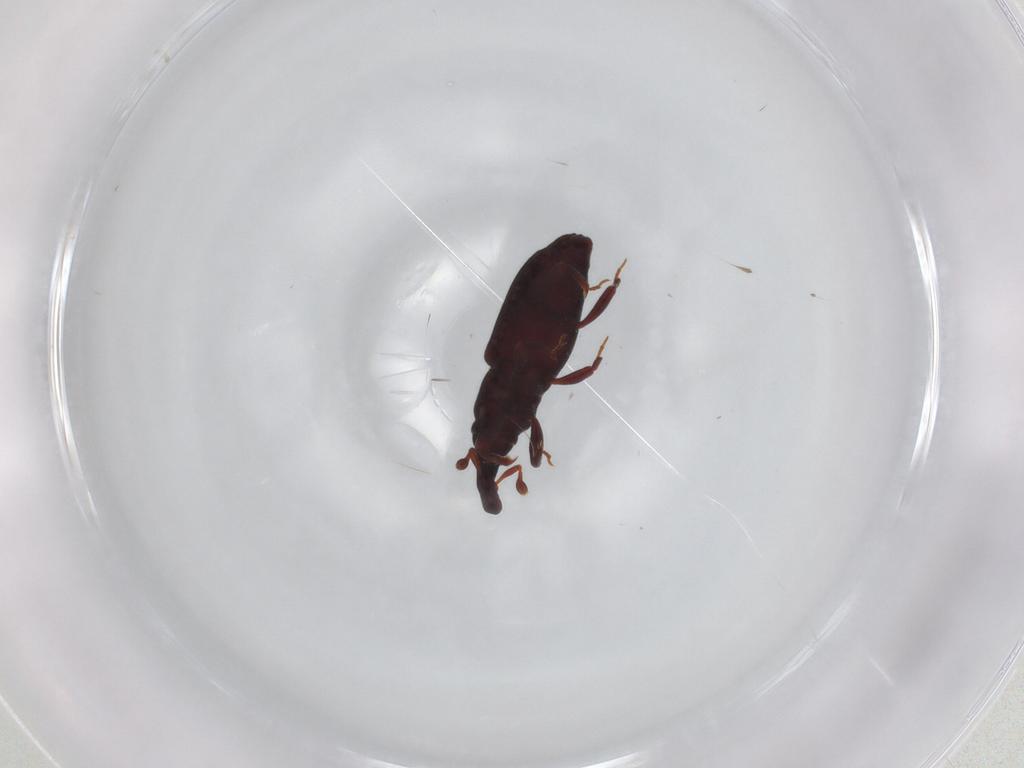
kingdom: Animalia
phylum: Arthropoda
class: Insecta
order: Coleoptera
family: Curculionidae
